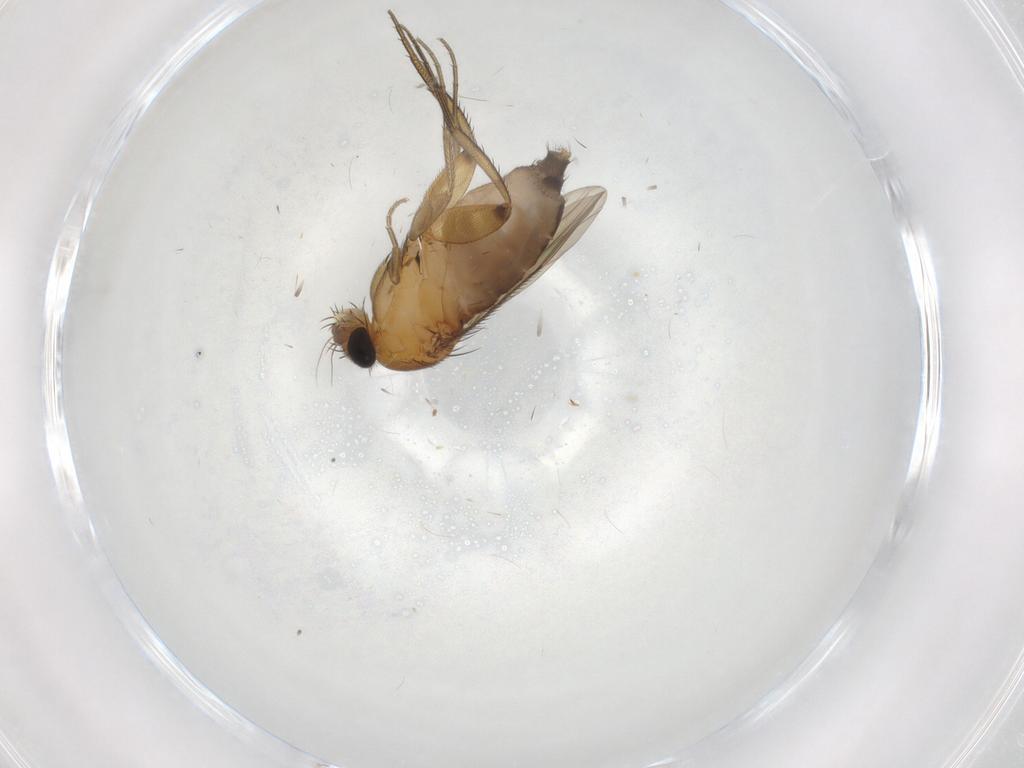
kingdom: Animalia
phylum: Arthropoda
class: Insecta
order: Diptera
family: Phoridae
